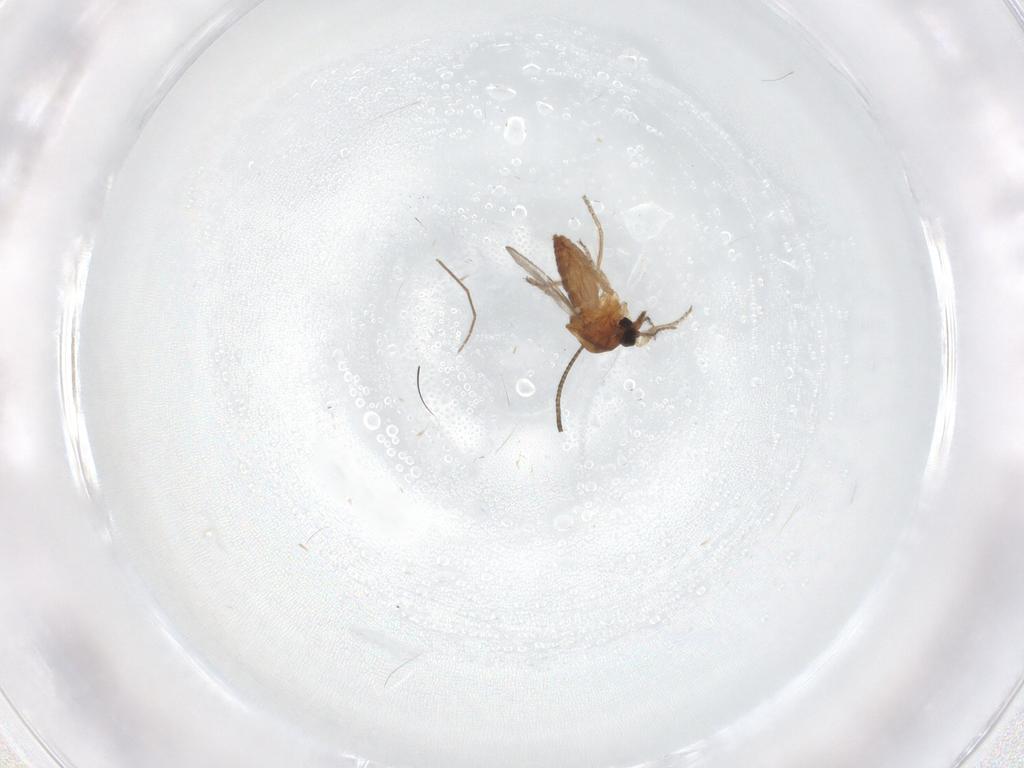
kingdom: Animalia
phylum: Arthropoda
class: Insecta
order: Diptera
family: Ceratopogonidae
